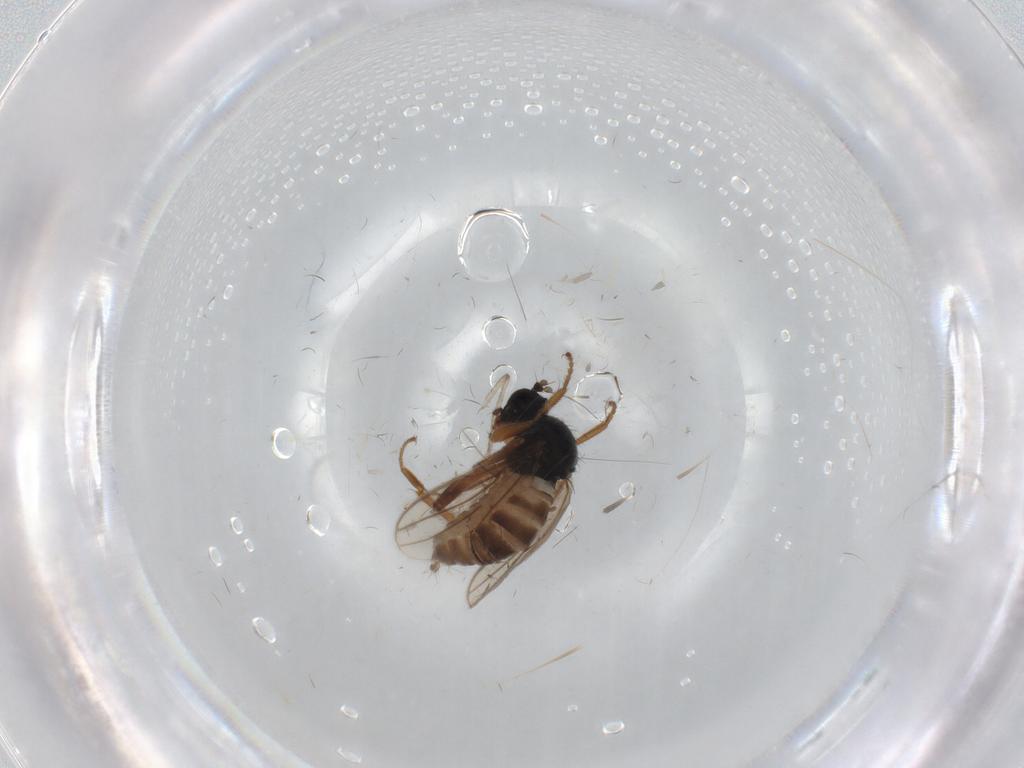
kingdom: Animalia
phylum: Arthropoda
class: Insecta
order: Diptera
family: Hybotidae
